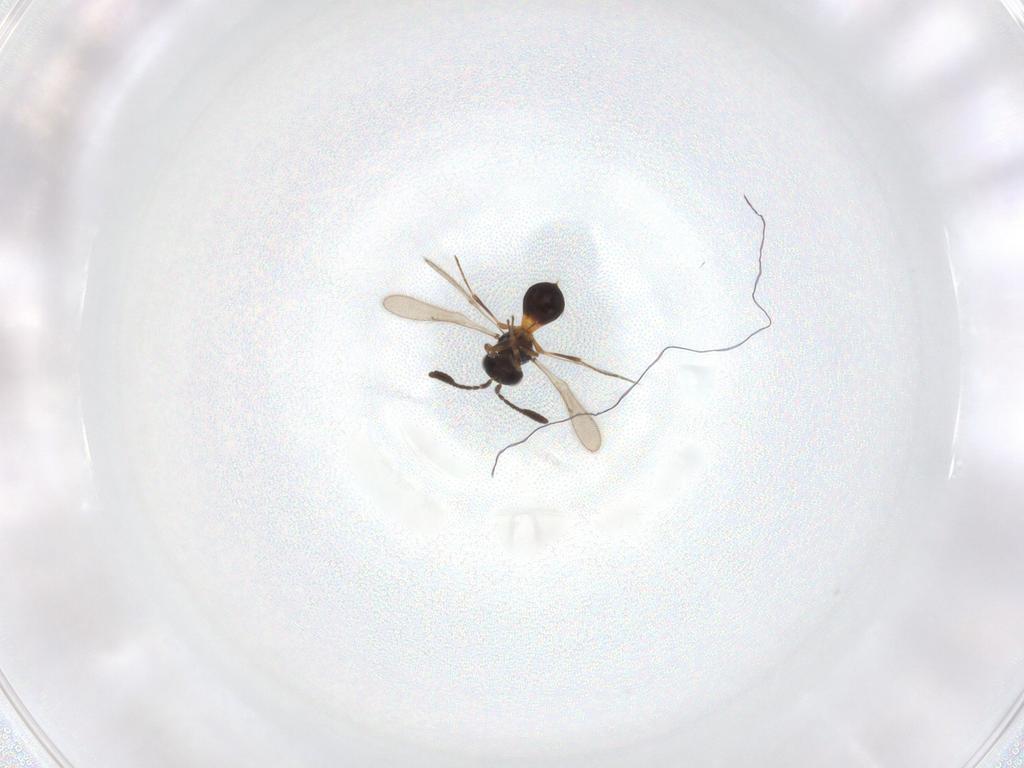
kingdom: Animalia
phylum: Arthropoda
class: Insecta
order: Hymenoptera
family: Scelionidae
